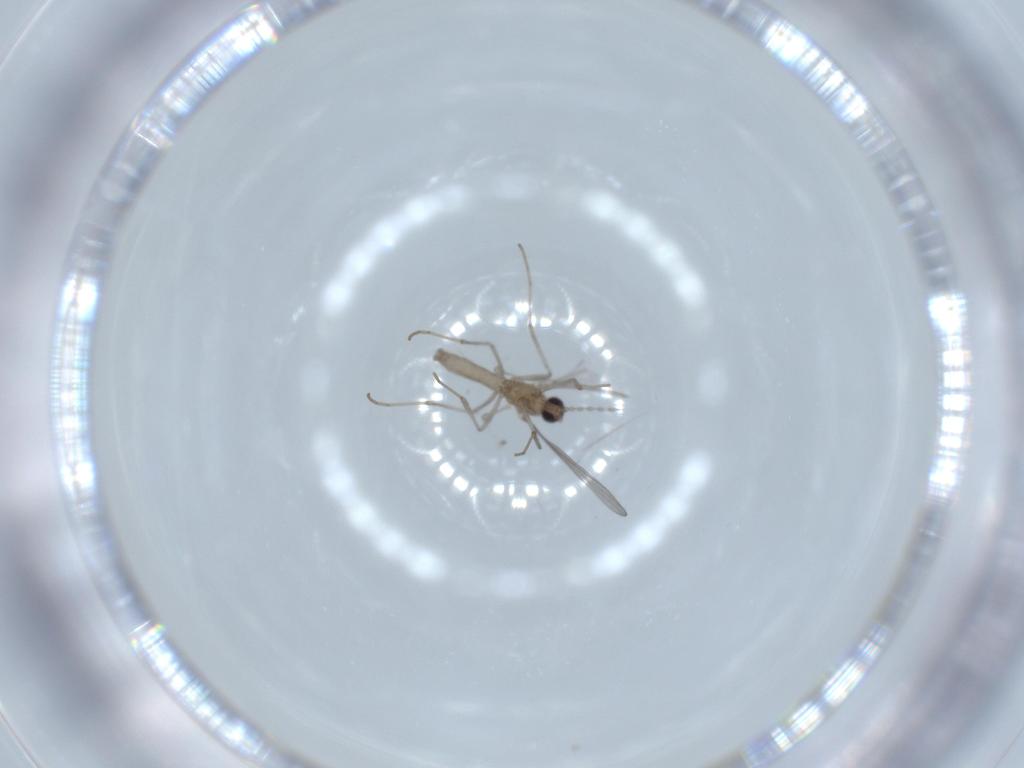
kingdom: Animalia
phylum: Arthropoda
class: Insecta
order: Diptera
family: Cecidomyiidae
